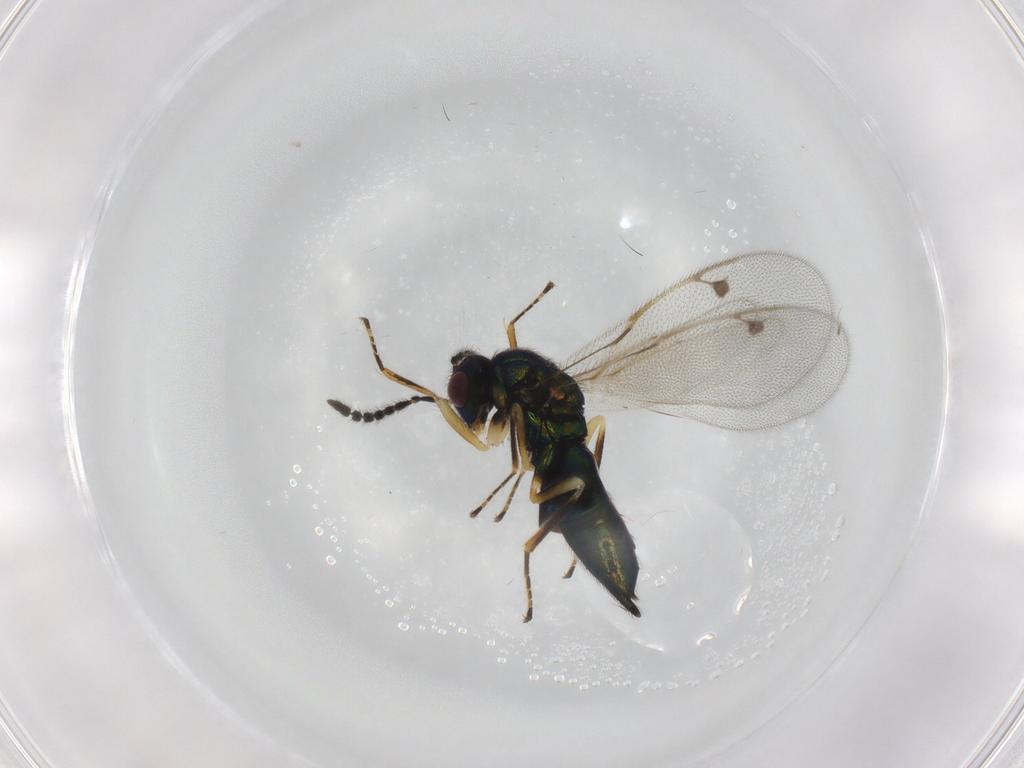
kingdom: Animalia
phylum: Arthropoda
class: Insecta
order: Hymenoptera
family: Pirenidae
